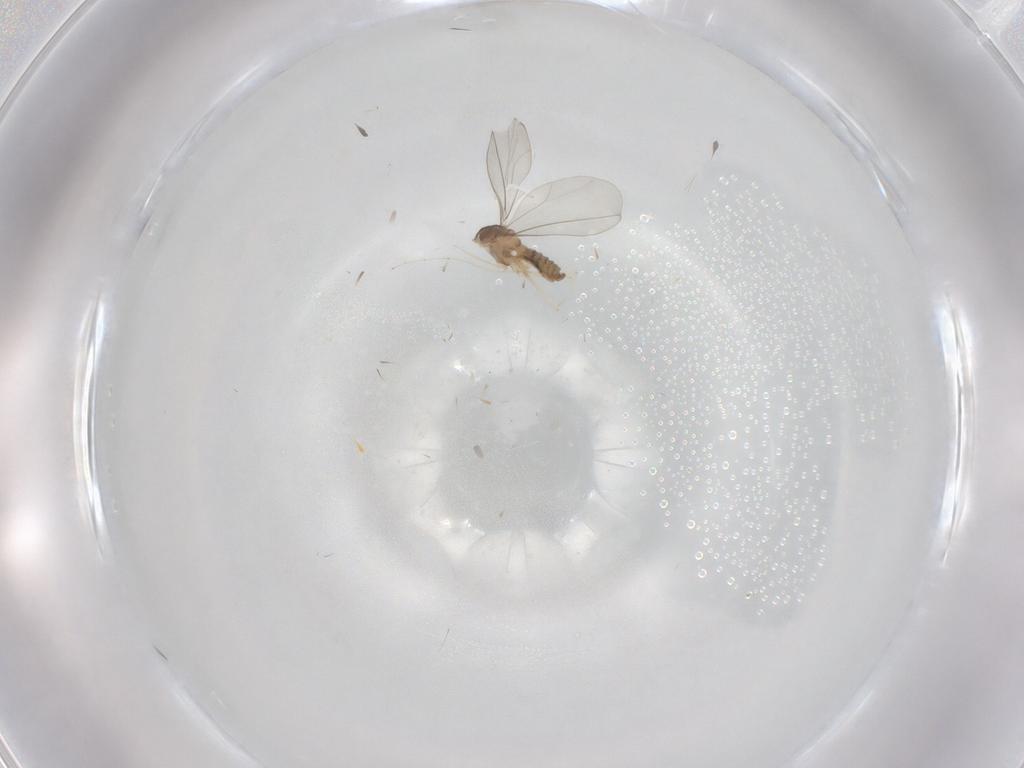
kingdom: Animalia
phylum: Arthropoda
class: Insecta
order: Diptera
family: Cecidomyiidae
